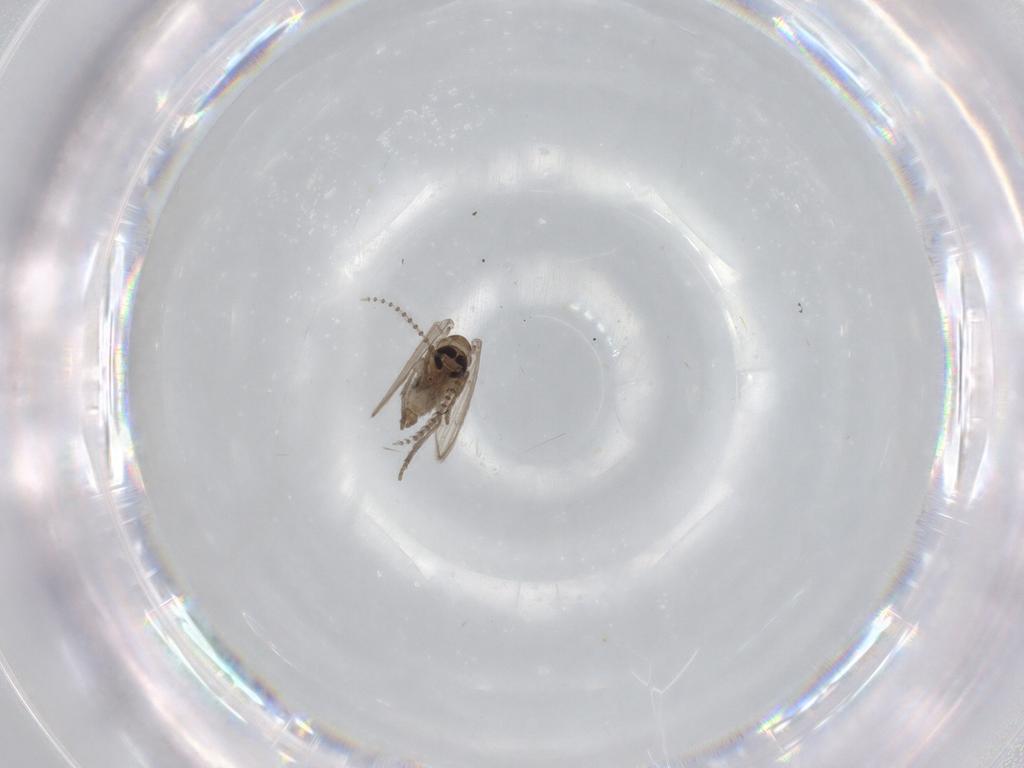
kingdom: Animalia
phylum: Arthropoda
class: Insecta
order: Diptera
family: Psychodidae
